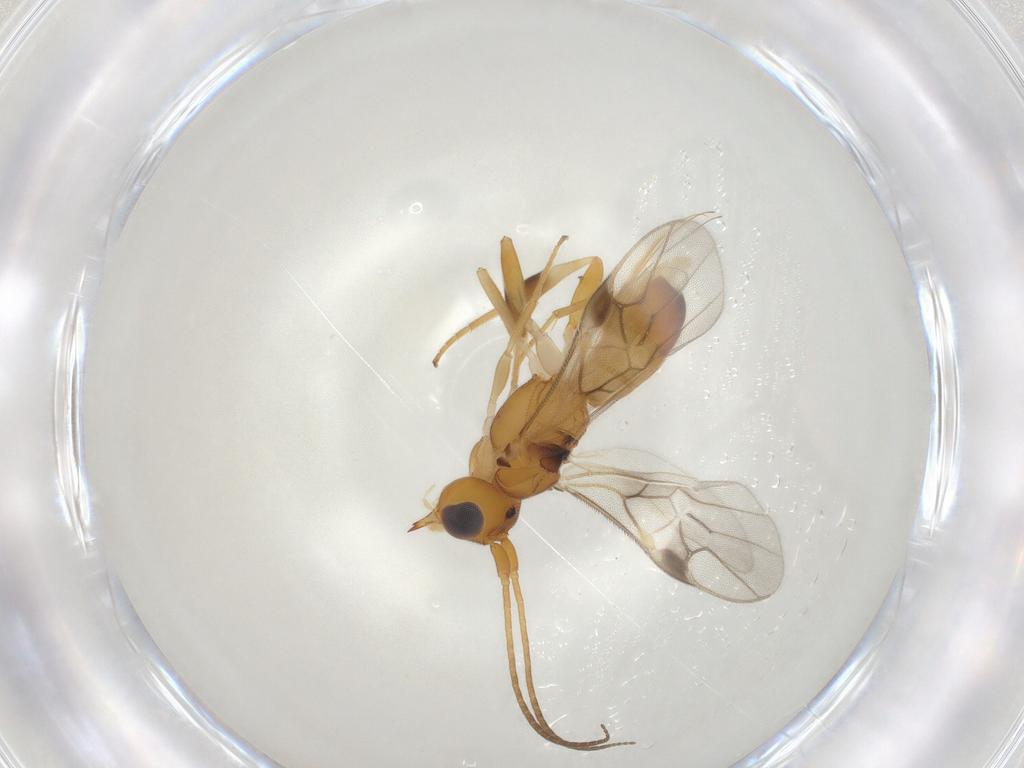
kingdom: Animalia
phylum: Arthropoda
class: Insecta
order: Hymenoptera
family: Braconidae
